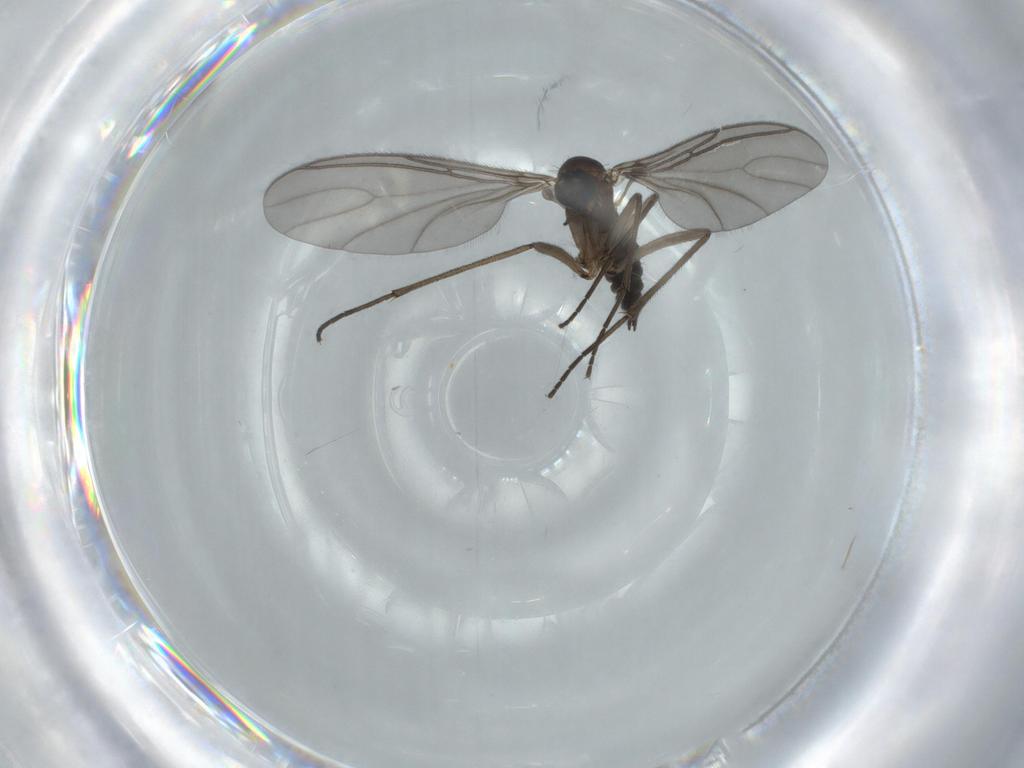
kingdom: Animalia
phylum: Arthropoda
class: Insecta
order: Diptera
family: Sciaridae
